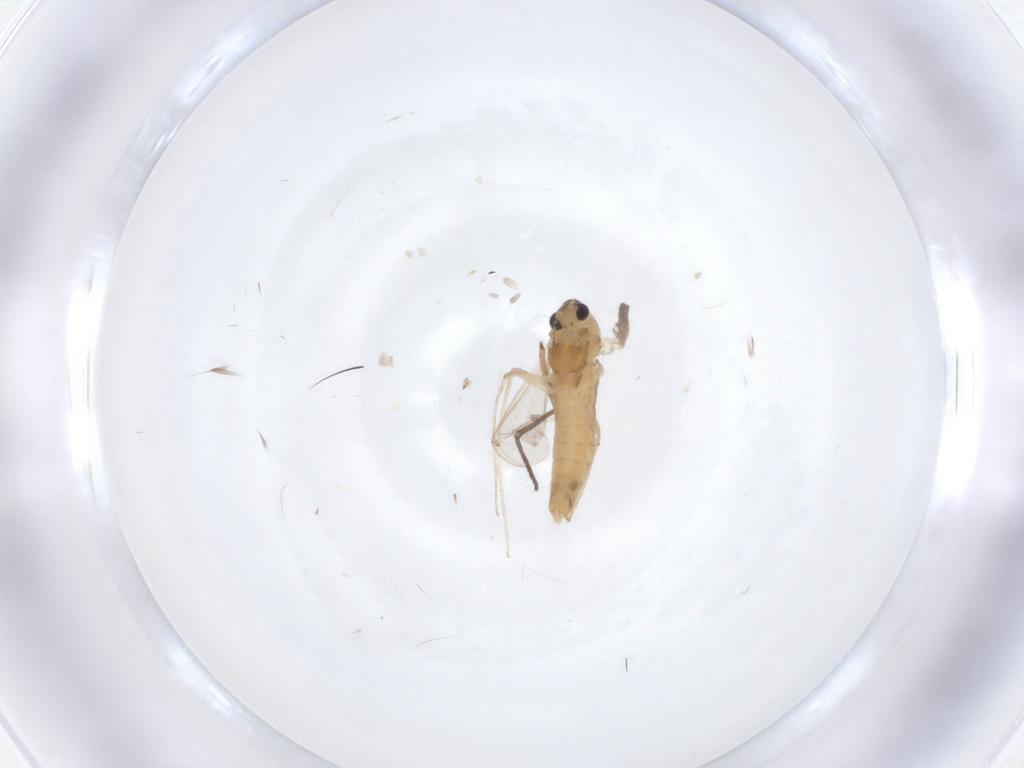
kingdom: Animalia
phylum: Arthropoda
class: Insecta
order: Diptera
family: Chironomidae
